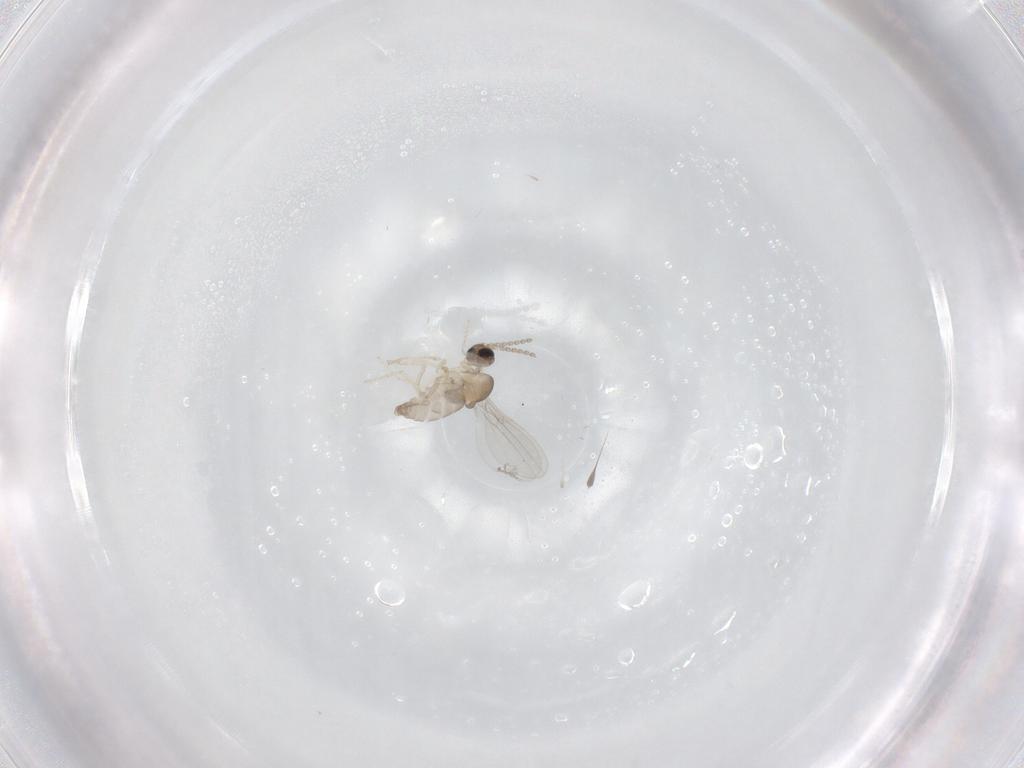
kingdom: Animalia
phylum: Arthropoda
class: Insecta
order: Diptera
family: Cecidomyiidae
